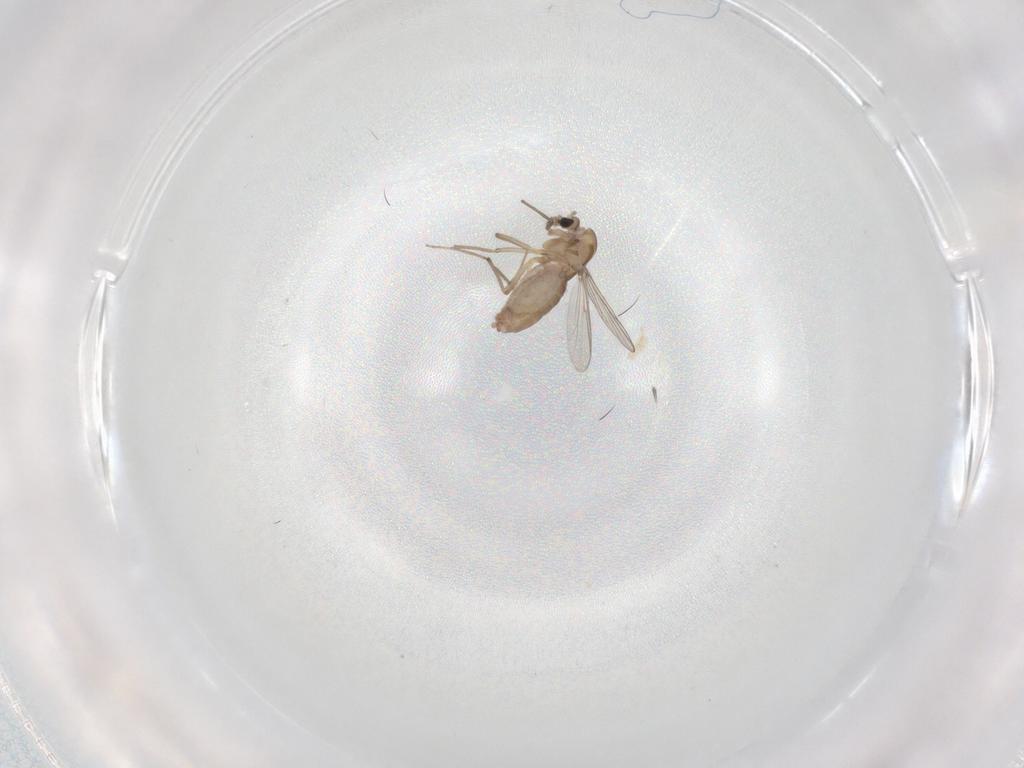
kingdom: Animalia
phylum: Arthropoda
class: Insecta
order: Diptera
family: Chironomidae
